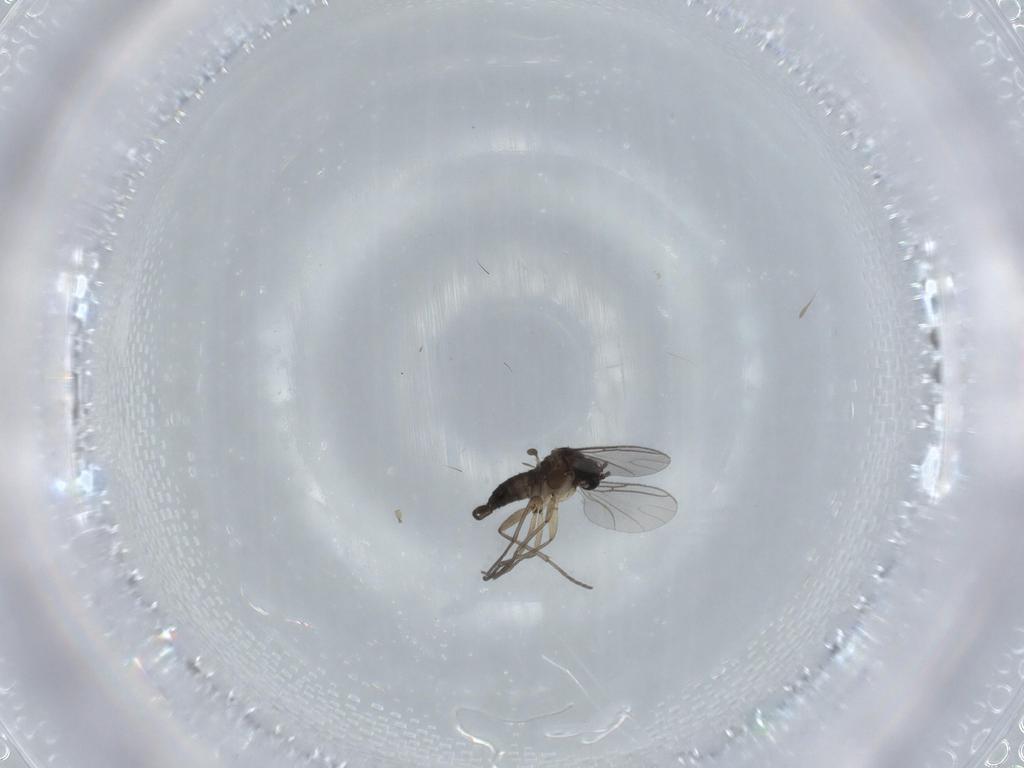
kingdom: Animalia
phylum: Arthropoda
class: Insecta
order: Diptera
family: Sciaridae
